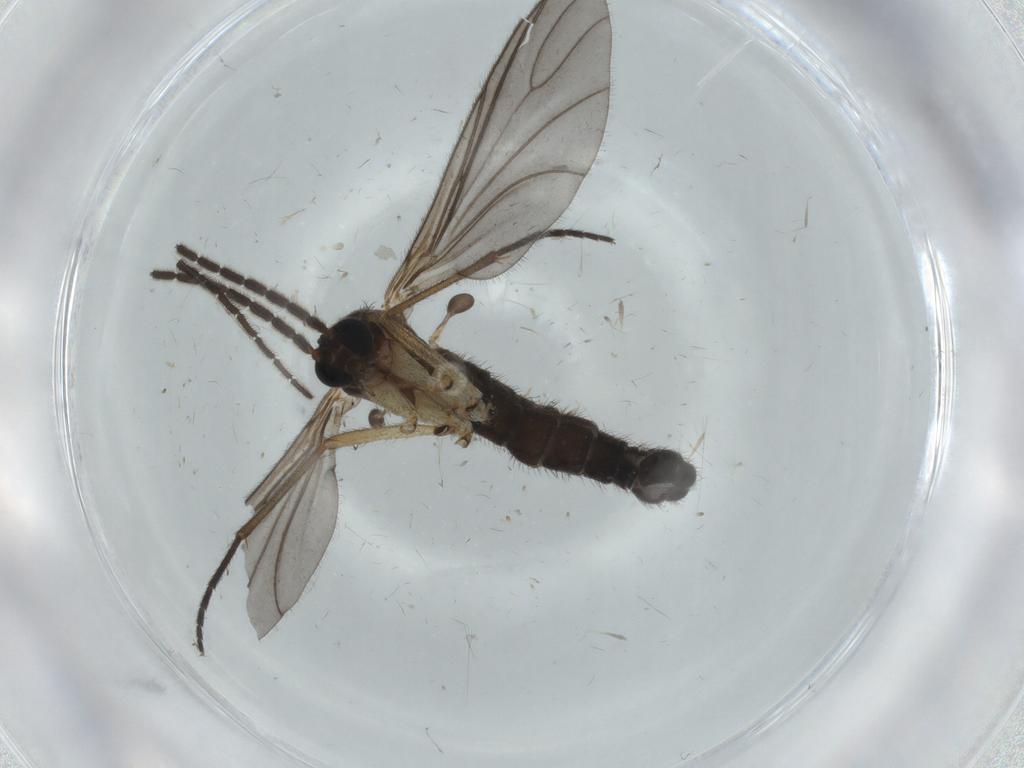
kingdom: Animalia
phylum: Arthropoda
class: Insecta
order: Diptera
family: Sciaridae
